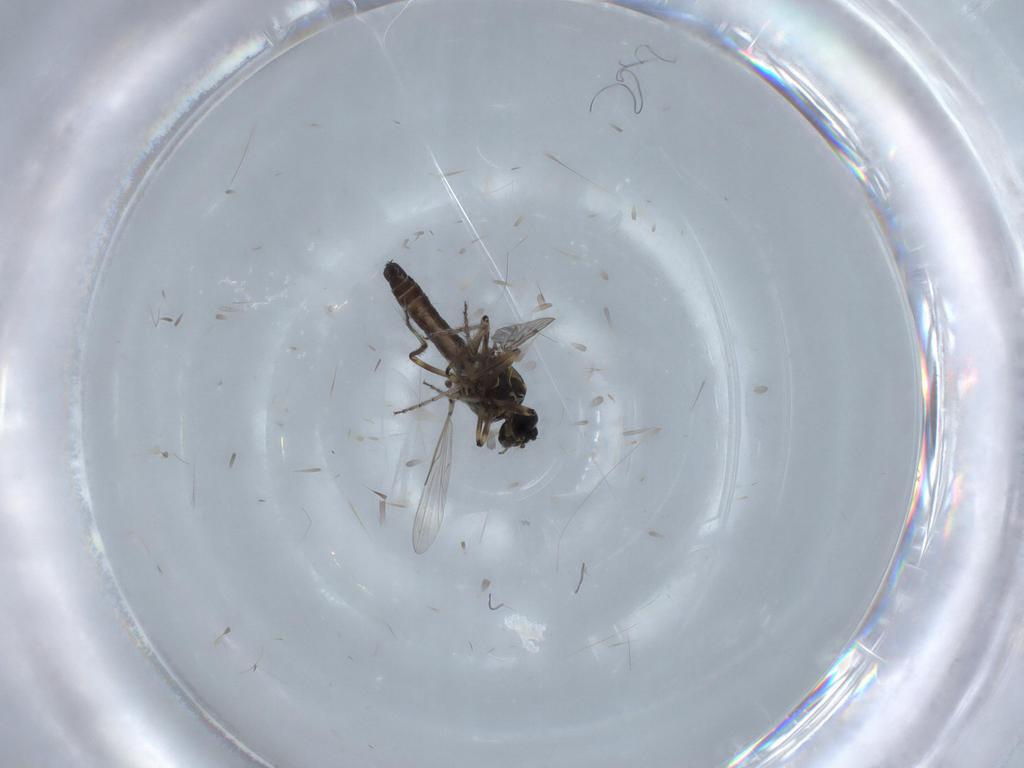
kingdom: Animalia
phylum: Arthropoda
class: Insecta
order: Diptera
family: Ceratopogonidae
